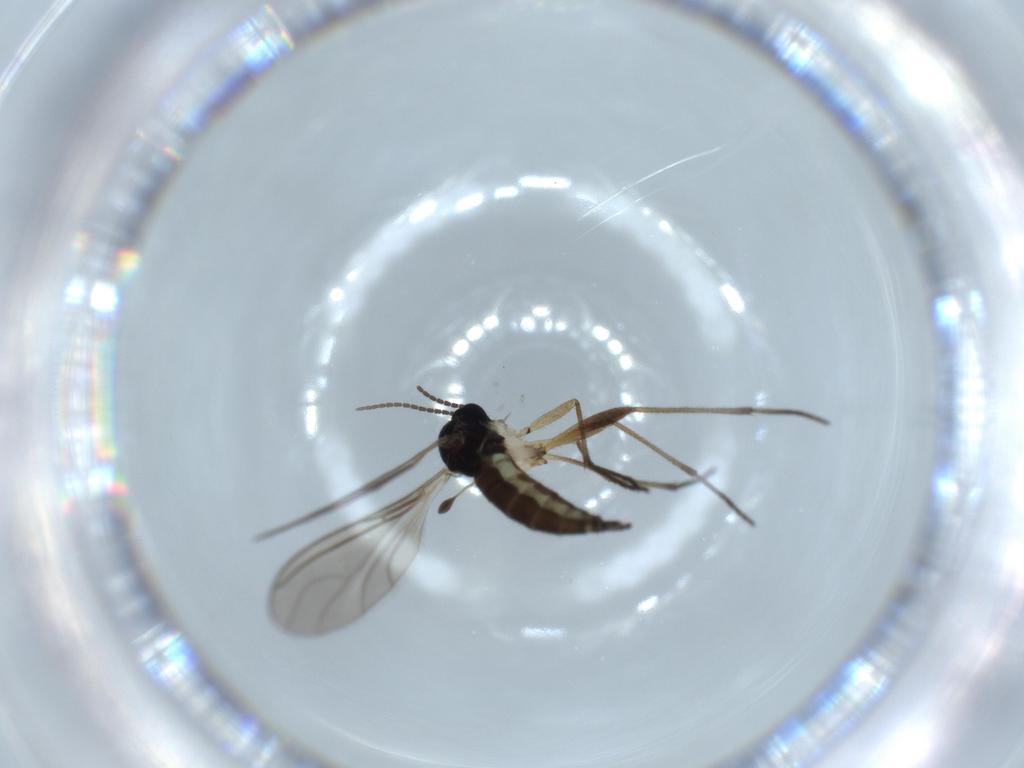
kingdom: Animalia
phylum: Arthropoda
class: Insecta
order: Diptera
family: Sciaridae
